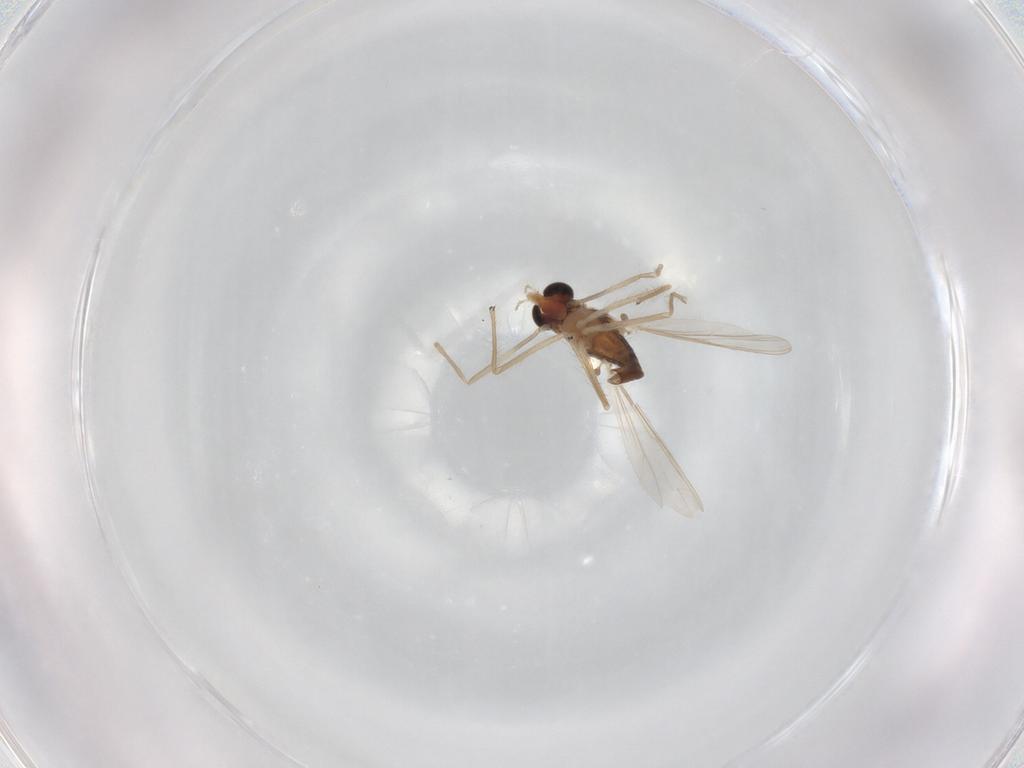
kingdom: Animalia
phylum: Arthropoda
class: Insecta
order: Diptera
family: Chironomidae
